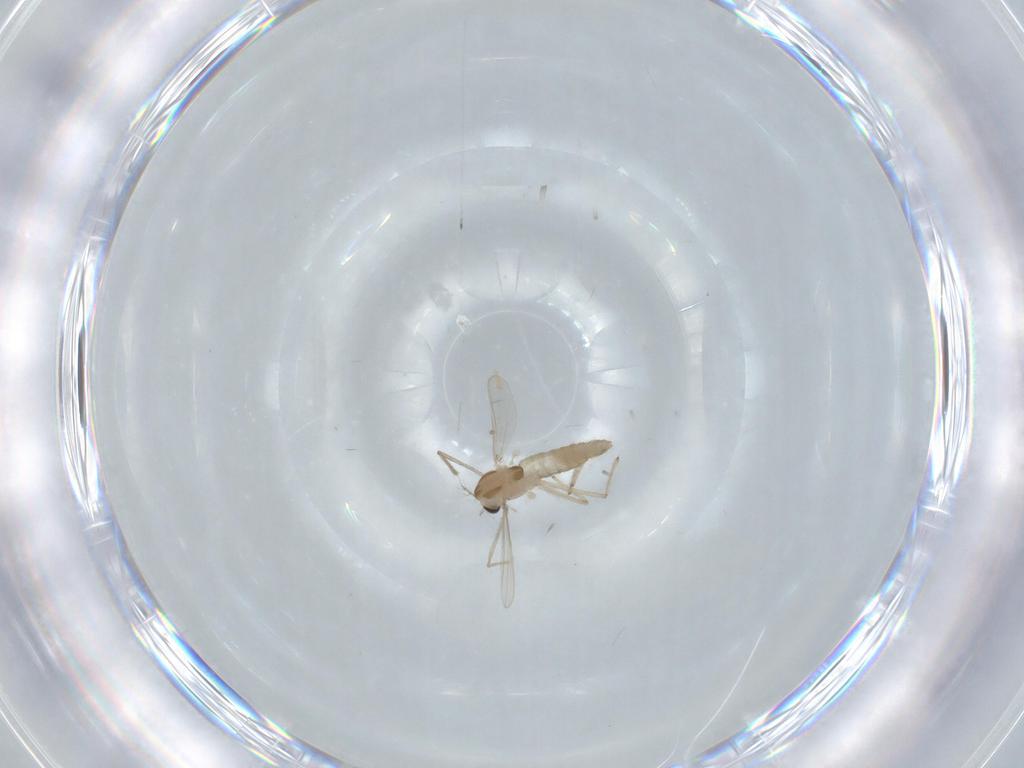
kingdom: Animalia
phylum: Arthropoda
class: Insecta
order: Diptera
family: Chironomidae
